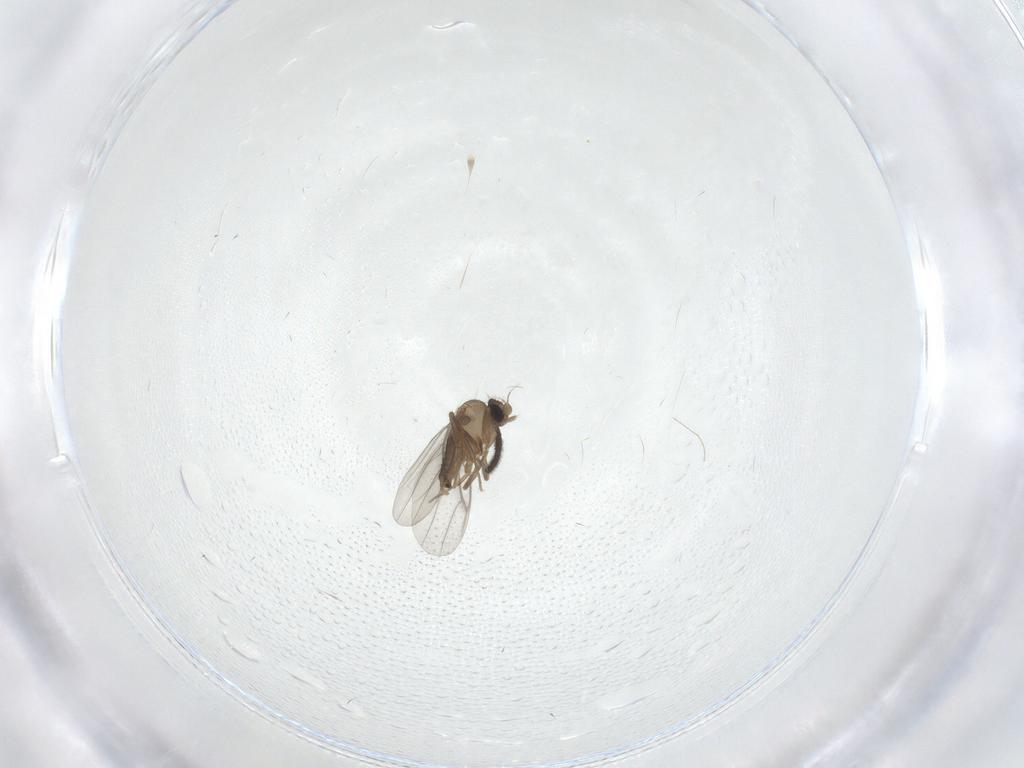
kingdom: Animalia
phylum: Arthropoda
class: Insecta
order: Diptera
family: Sciaridae
